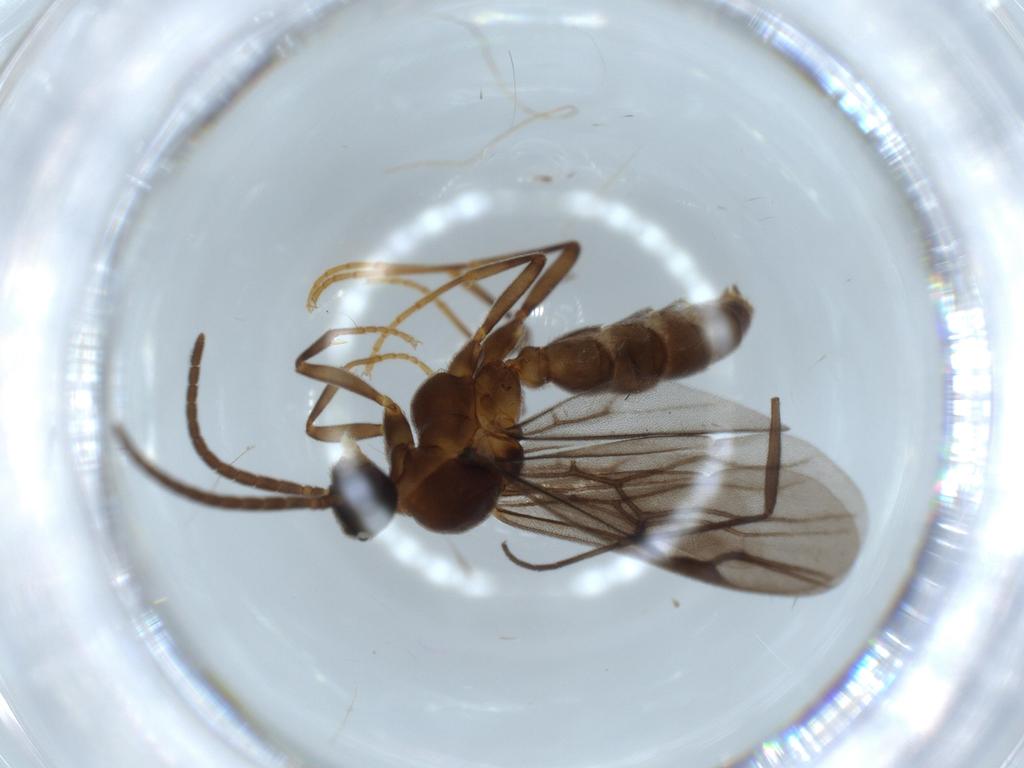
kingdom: Animalia
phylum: Arthropoda
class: Insecta
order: Hymenoptera
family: Formicidae
